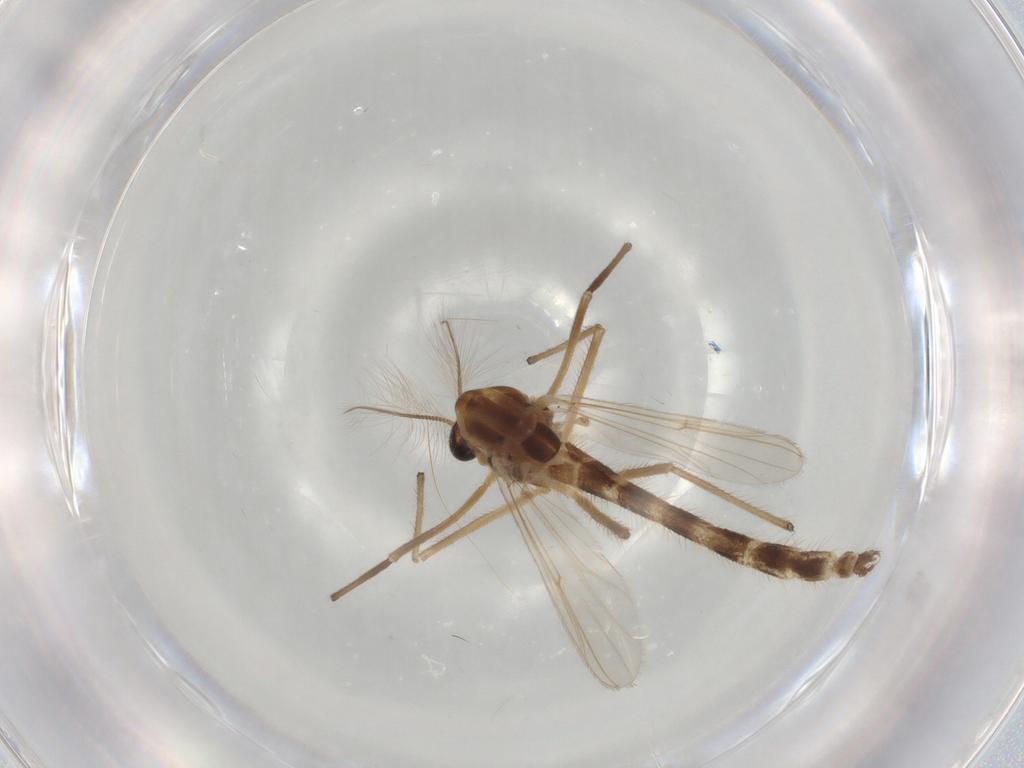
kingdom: Animalia
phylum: Arthropoda
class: Insecta
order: Diptera
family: Chironomidae
